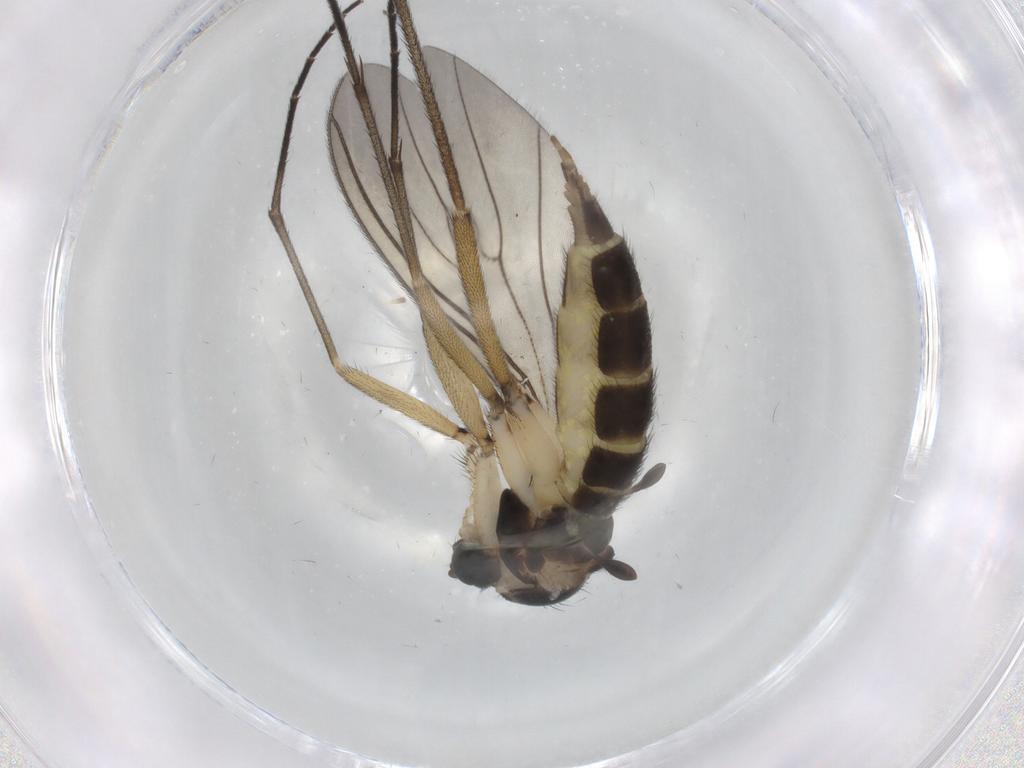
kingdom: Animalia
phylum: Arthropoda
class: Insecta
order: Diptera
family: Sciaridae
